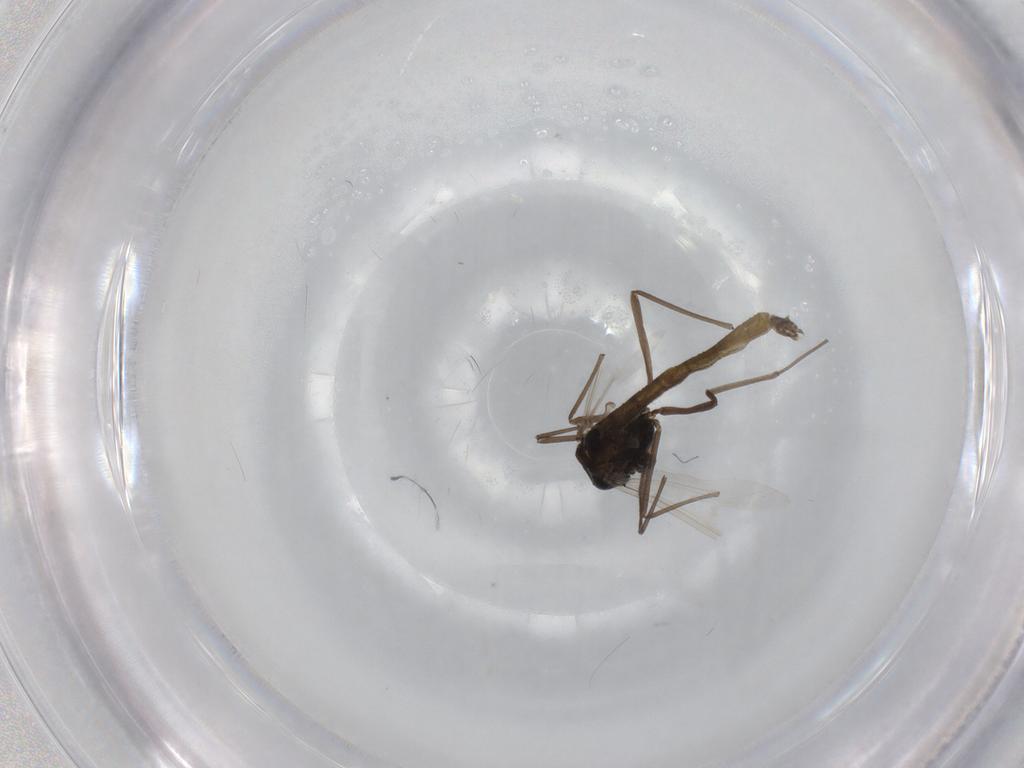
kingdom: Animalia
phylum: Arthropoda
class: Insecta
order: Diptera
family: Chironomidae
